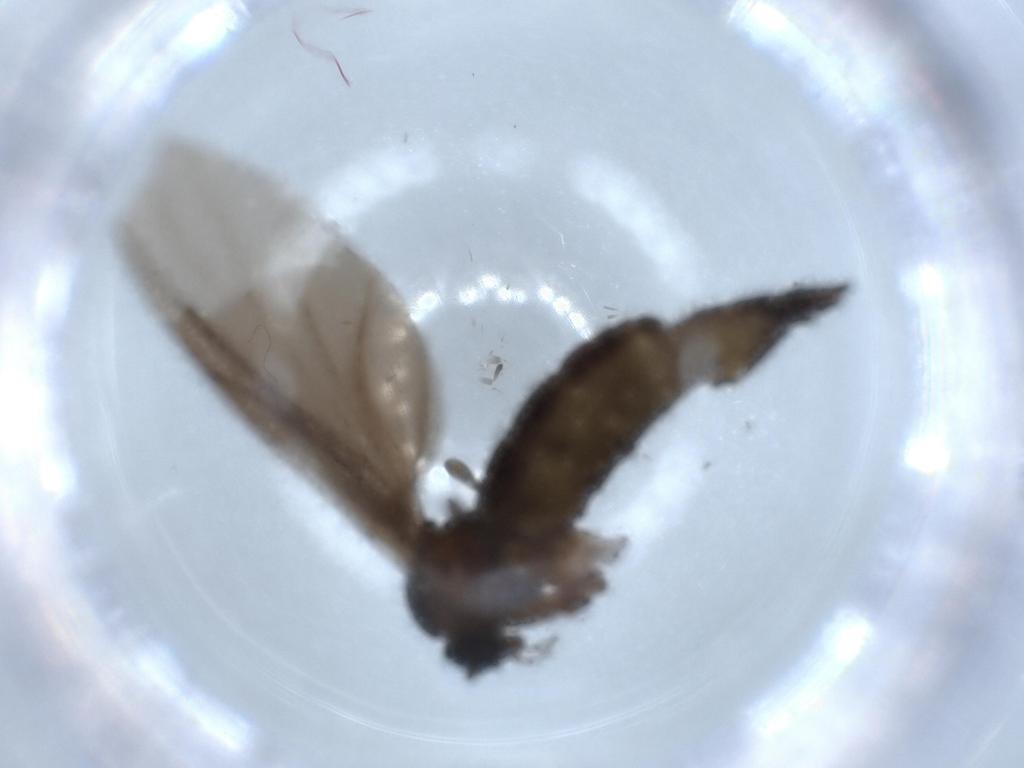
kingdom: Animalia
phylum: Arthropoda
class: Insecta
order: Diptera
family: Sciaridae
